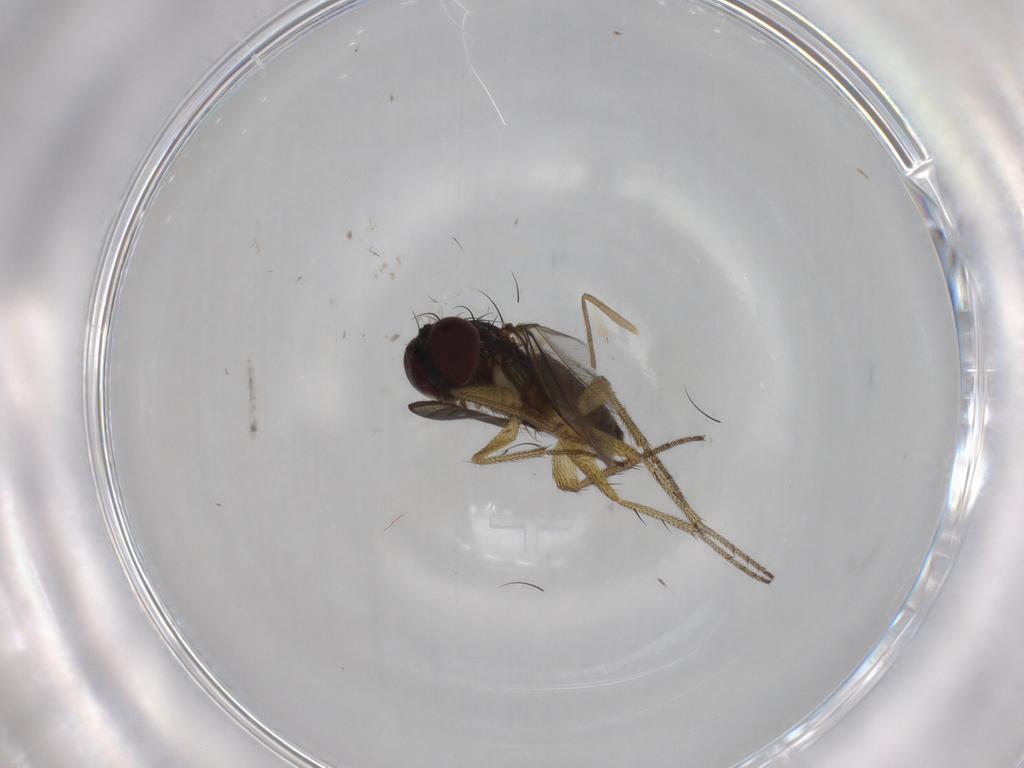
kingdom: Animalia
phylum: Arthropoda
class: Insecta
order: Diptera
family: Dolichopodidae
